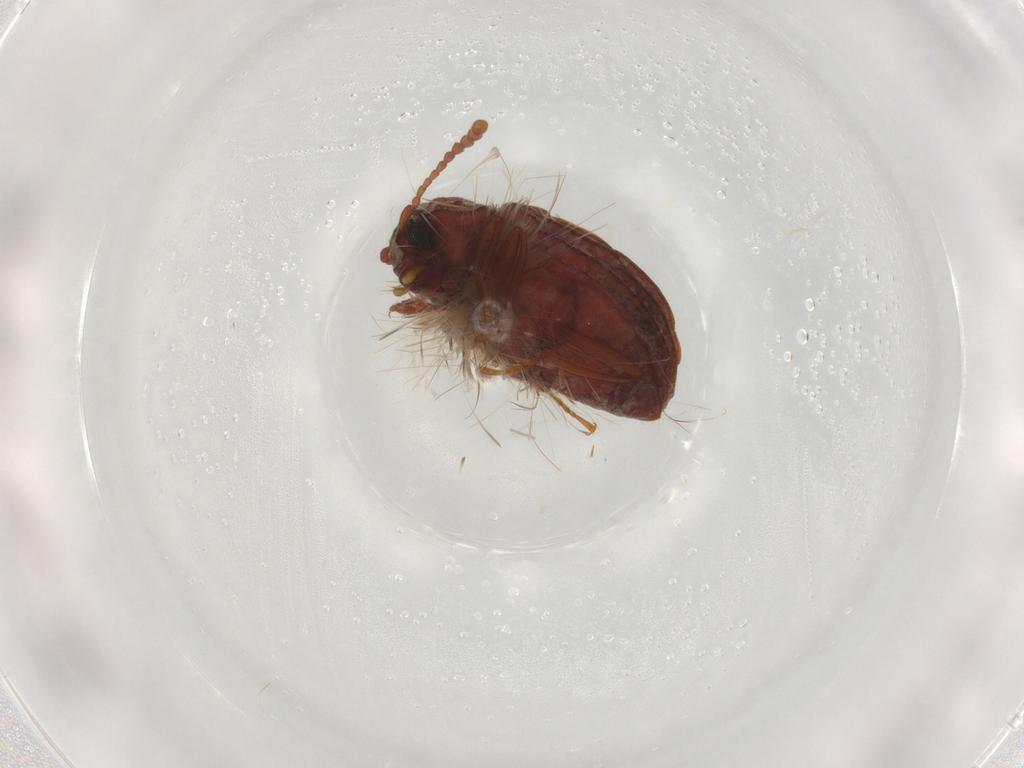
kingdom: Animalia
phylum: Arthropoda
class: Insecta
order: Coleoptera
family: Tenebrionidae
